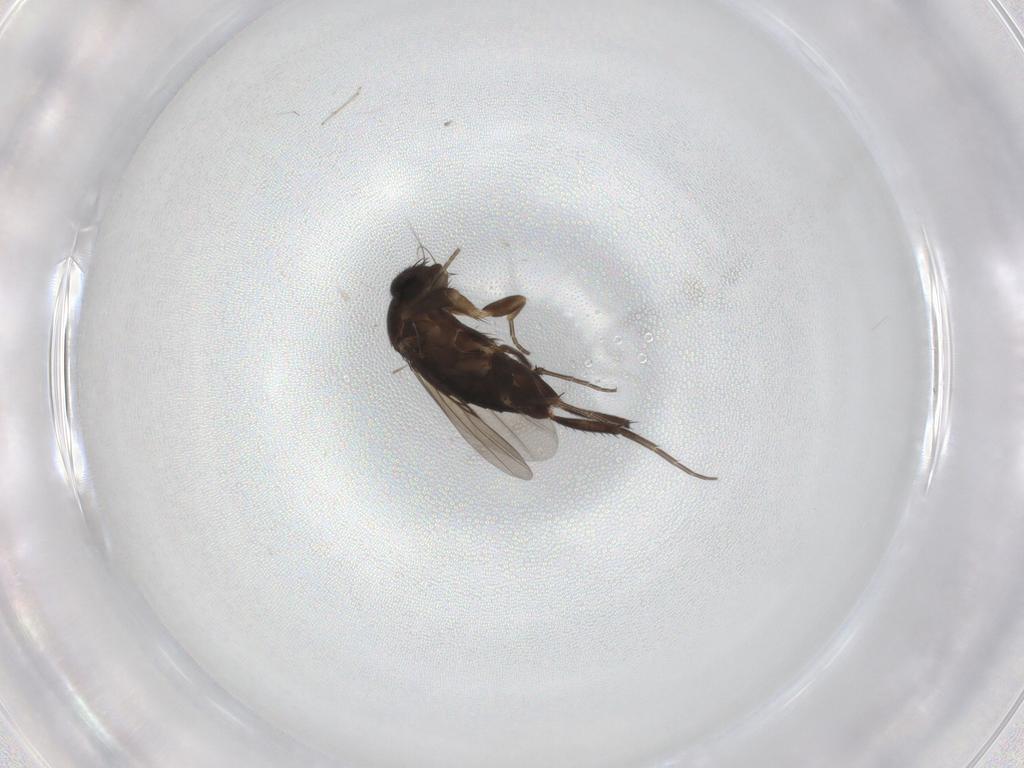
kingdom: Animalia
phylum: Arthropoda
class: Insecta
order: Diptera
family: Phoridae
